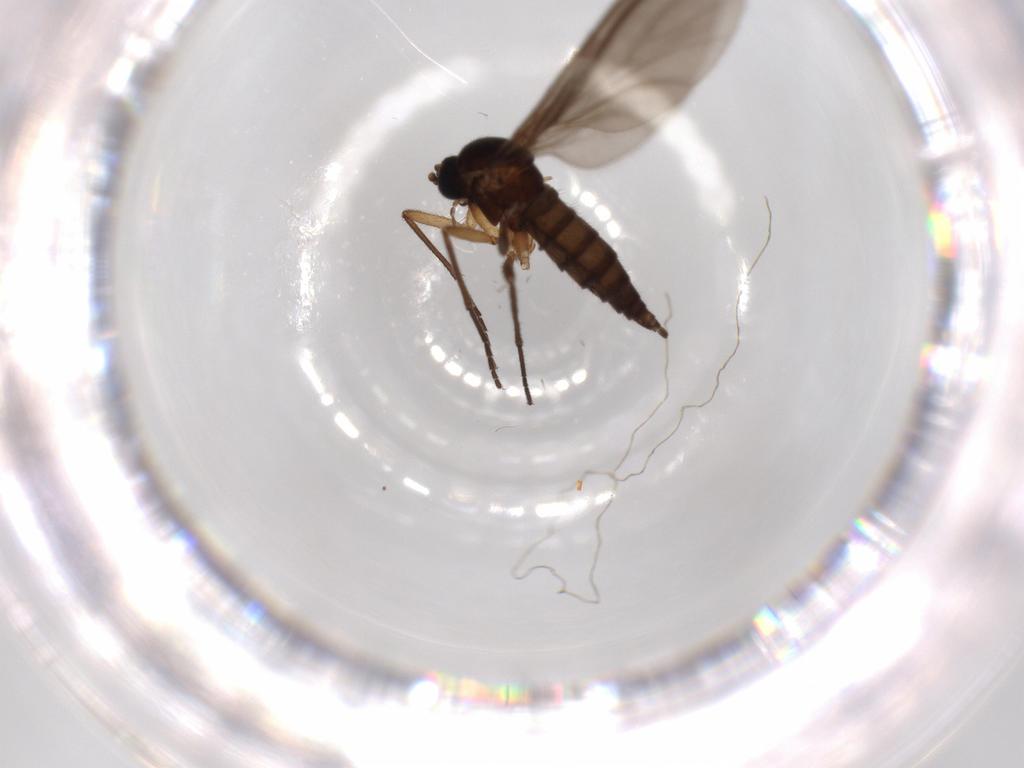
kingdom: Animalia
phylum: Arthropoda
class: Insecta
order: Diptera
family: Sciaridae
